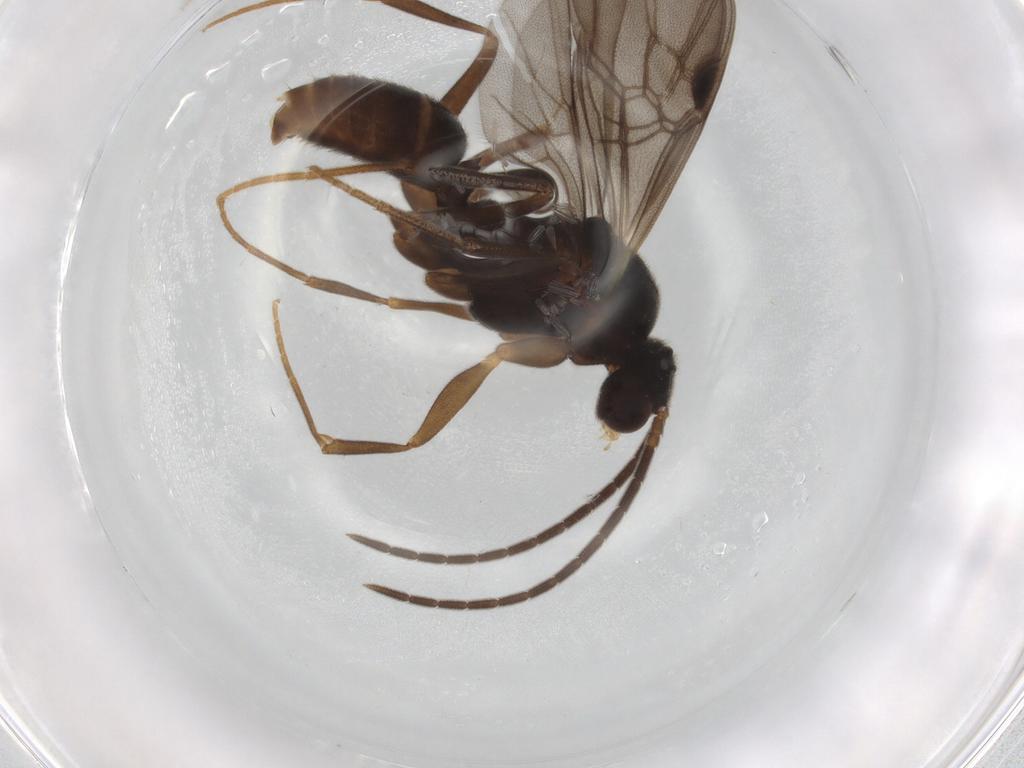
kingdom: Animalia
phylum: Arthropoda
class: Insecta
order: Hymenoptera
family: Formicidae
